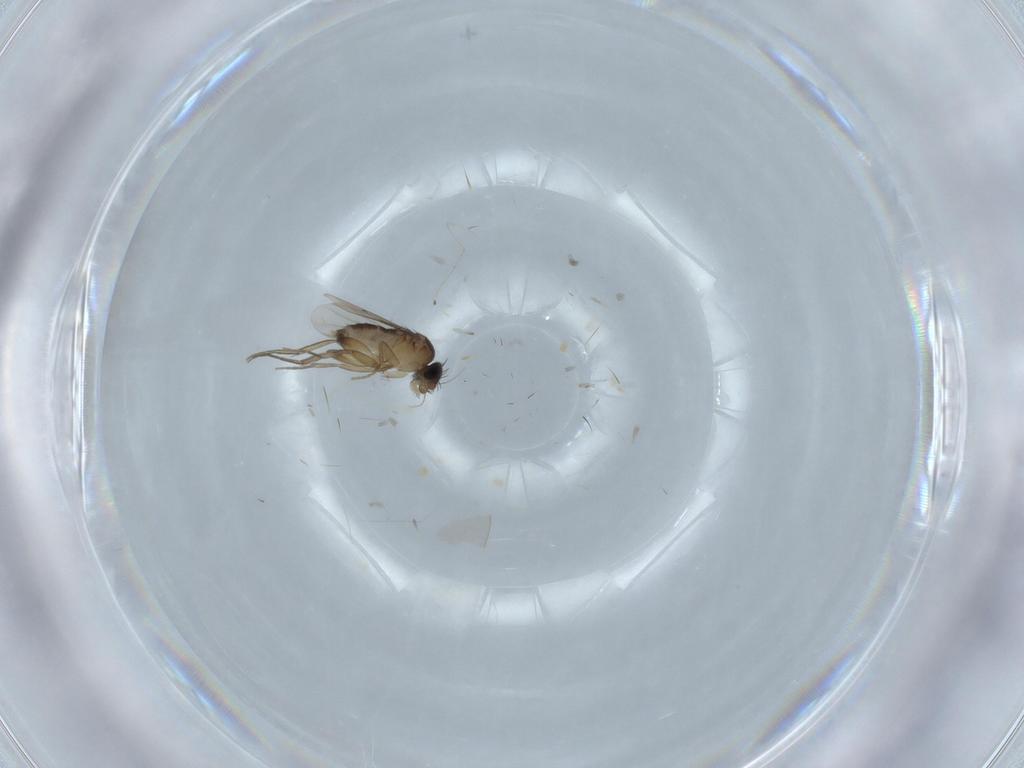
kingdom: Animalia
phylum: Arthropoda
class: Insecta
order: Diptera
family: Phoridae
